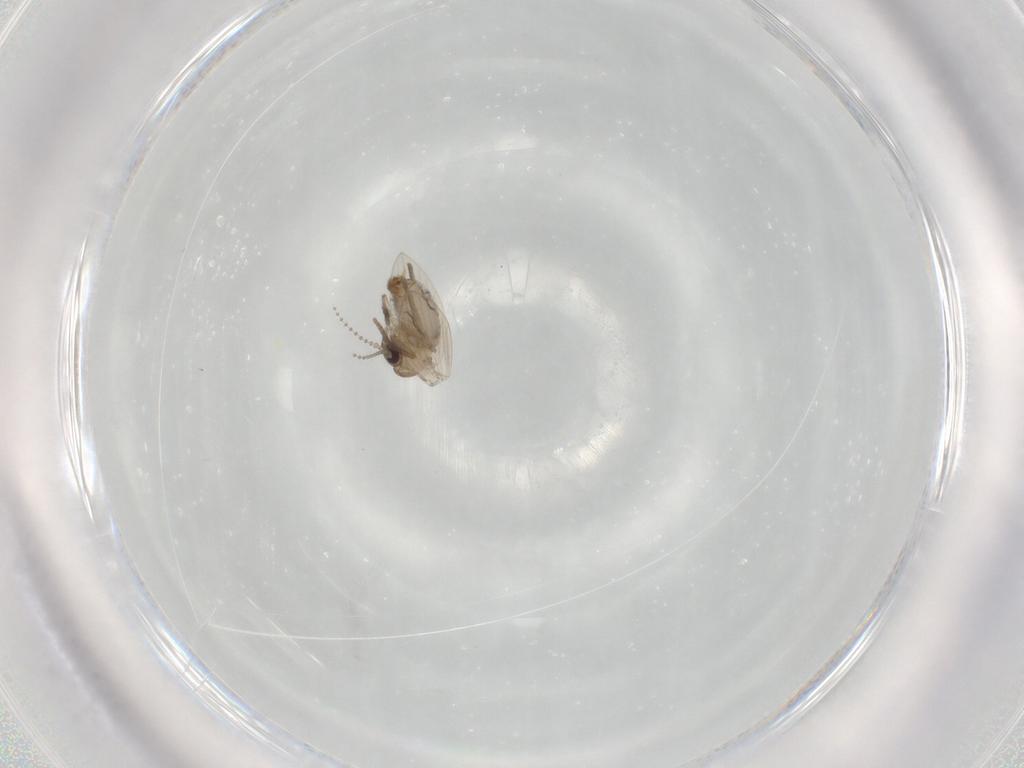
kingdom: Animalia
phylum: Arthropoda
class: Insecta
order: Diptera
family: Psychodidae
